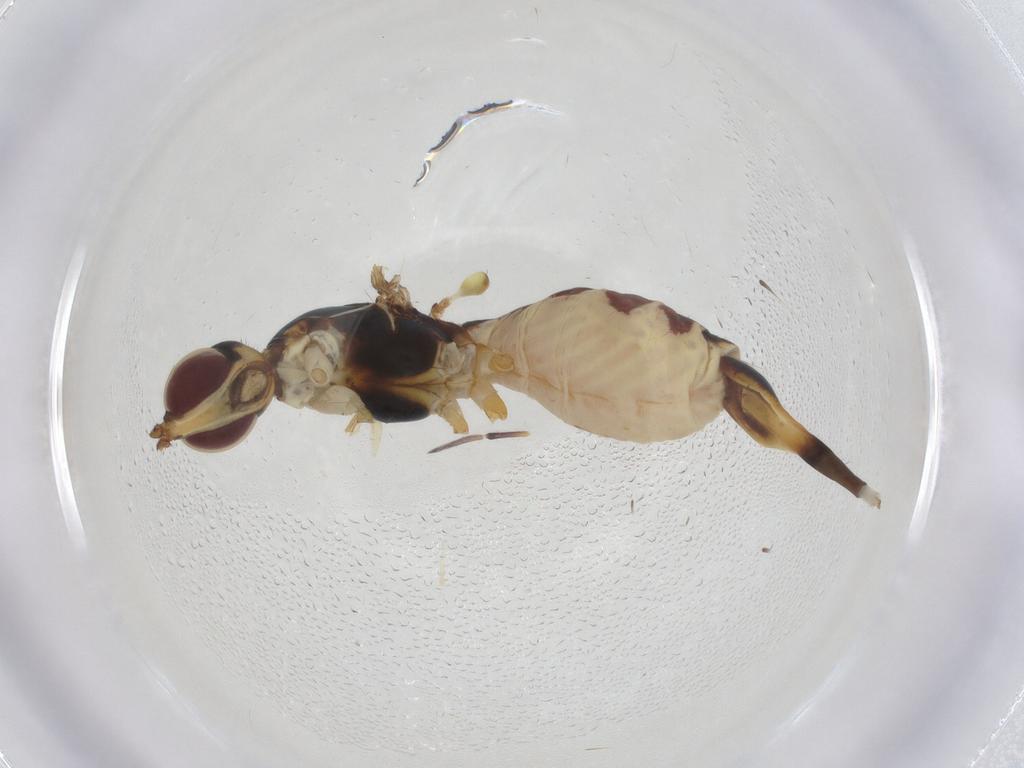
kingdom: Animalia
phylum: Arthropoda
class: Insecta
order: Diptera
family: Micropezidae
